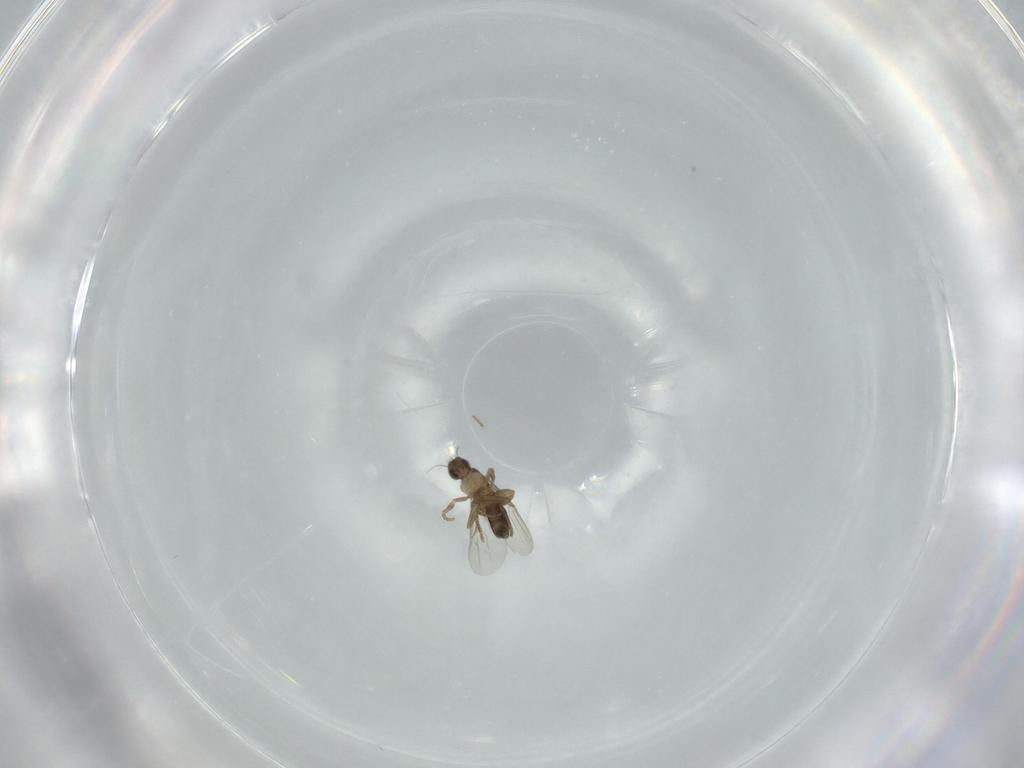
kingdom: Animalia
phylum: Arthropoda
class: Insecta
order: Diptera
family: Phoridae
